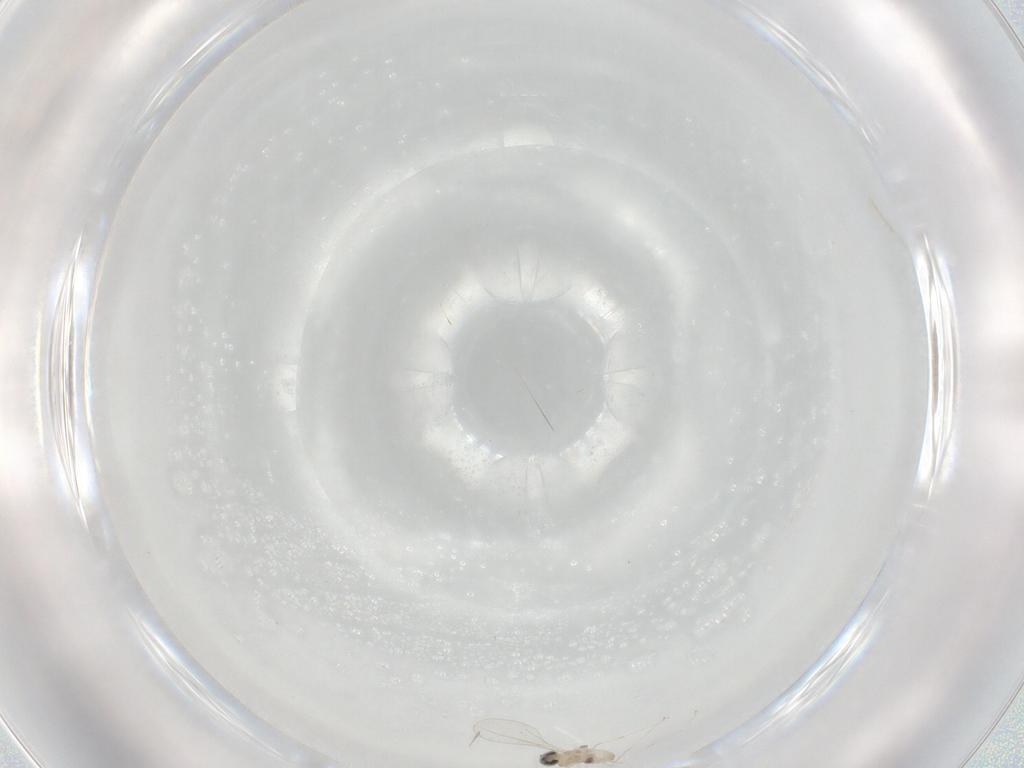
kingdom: Animalia
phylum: Arthropoda
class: Insecta
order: Diptera
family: Cecidomyiidae
